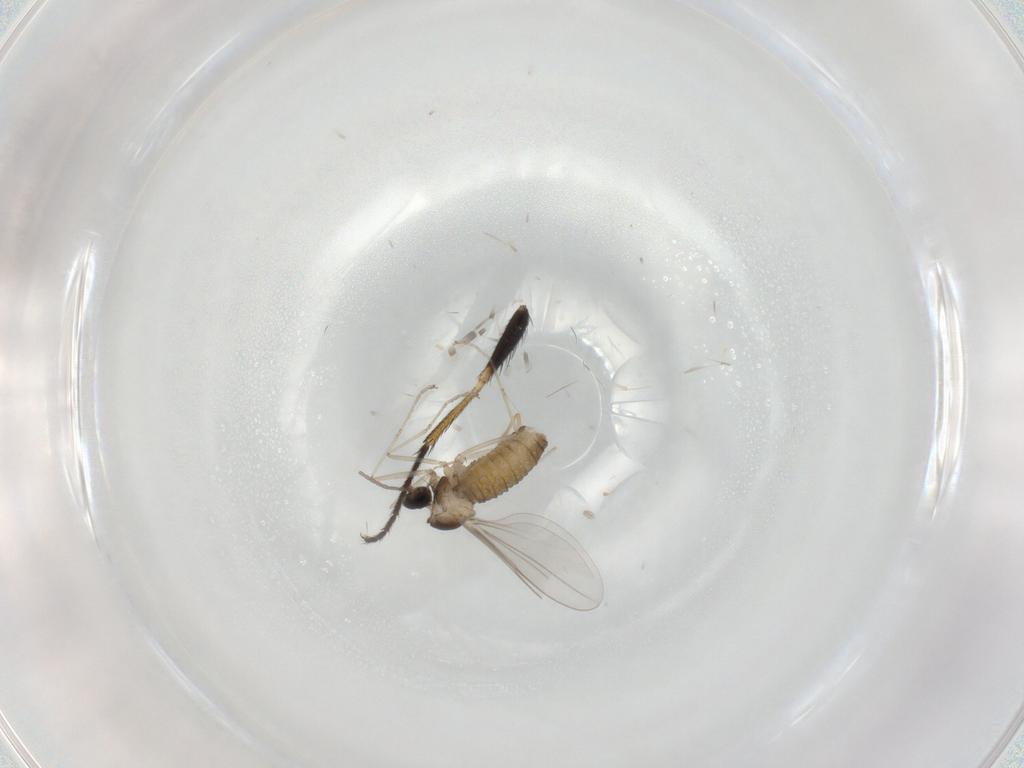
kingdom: Animalia
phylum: Arthropoda
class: Insecta
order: Diptera
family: Cecidomyiidae
